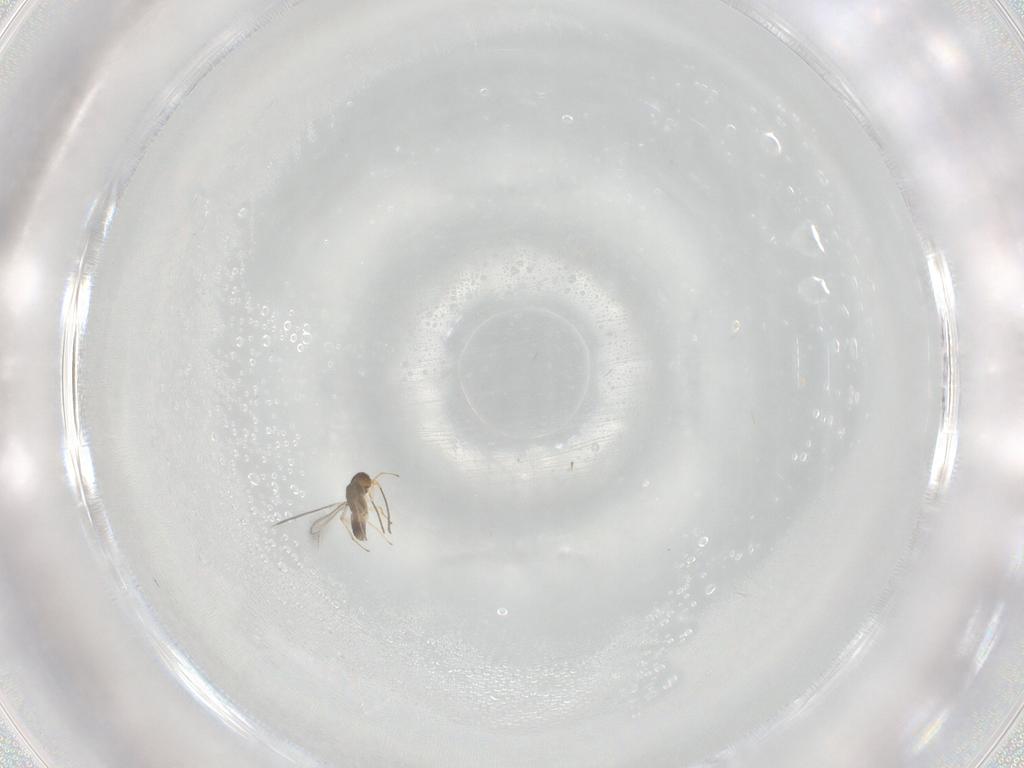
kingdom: Animalia
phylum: Arthropoda
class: Insecta
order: Hymenoptera
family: Mymaridae
